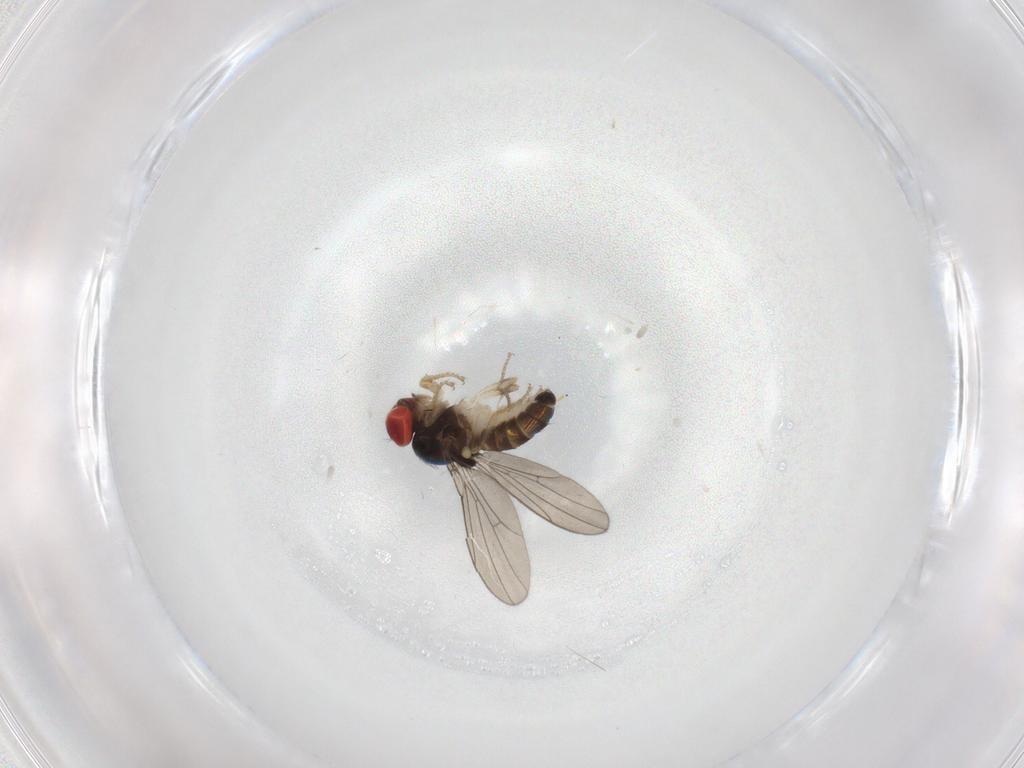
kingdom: Animalia
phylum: Arthropoda
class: Insecta
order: Diptera
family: Drosophilidae
